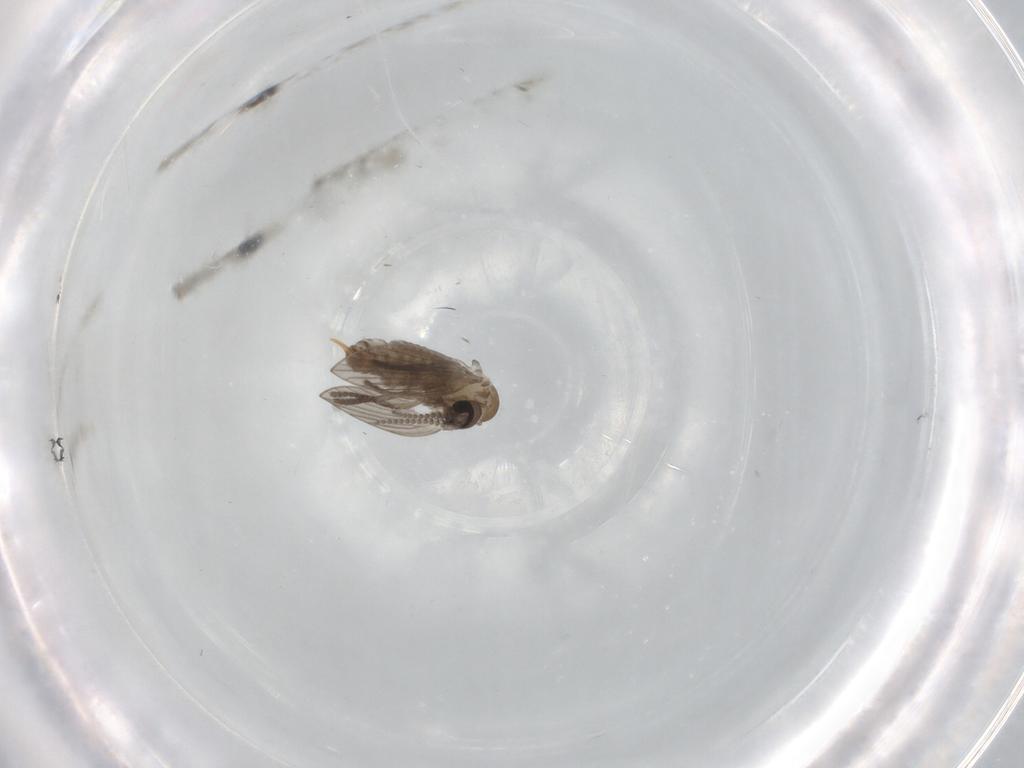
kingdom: Animalia
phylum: Arthropoda
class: Insecta
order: Diptera
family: Psychodidae
